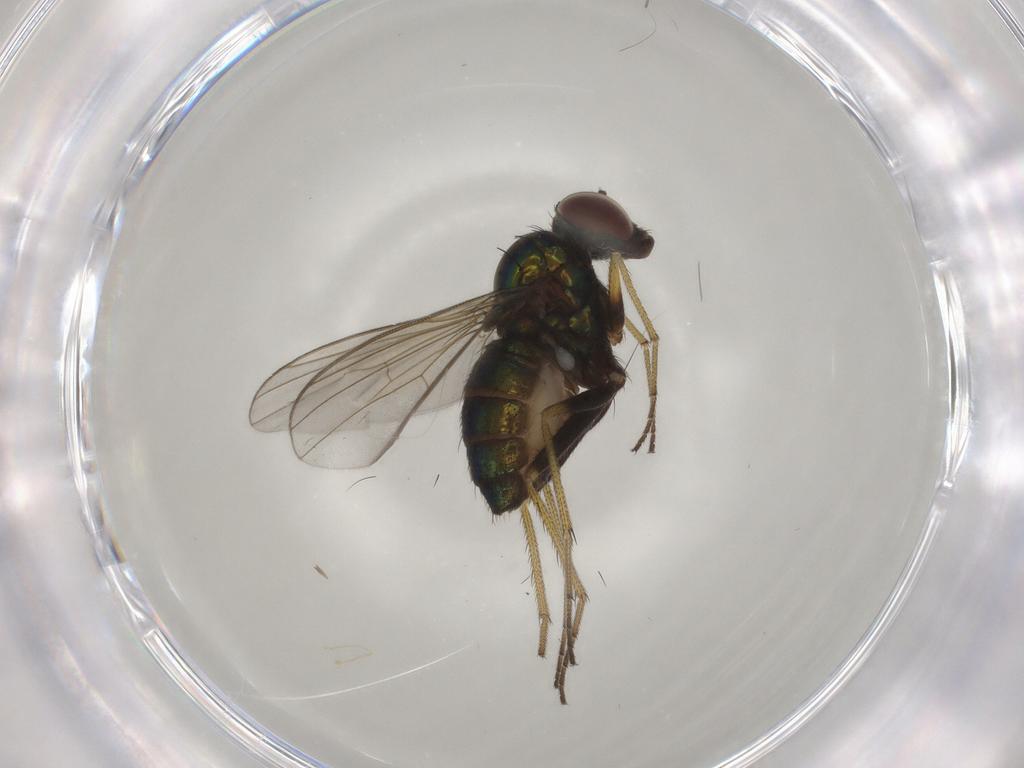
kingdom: Animalia
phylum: Arthropoda
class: Insecta
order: Diptera
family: Dolichopodidae
